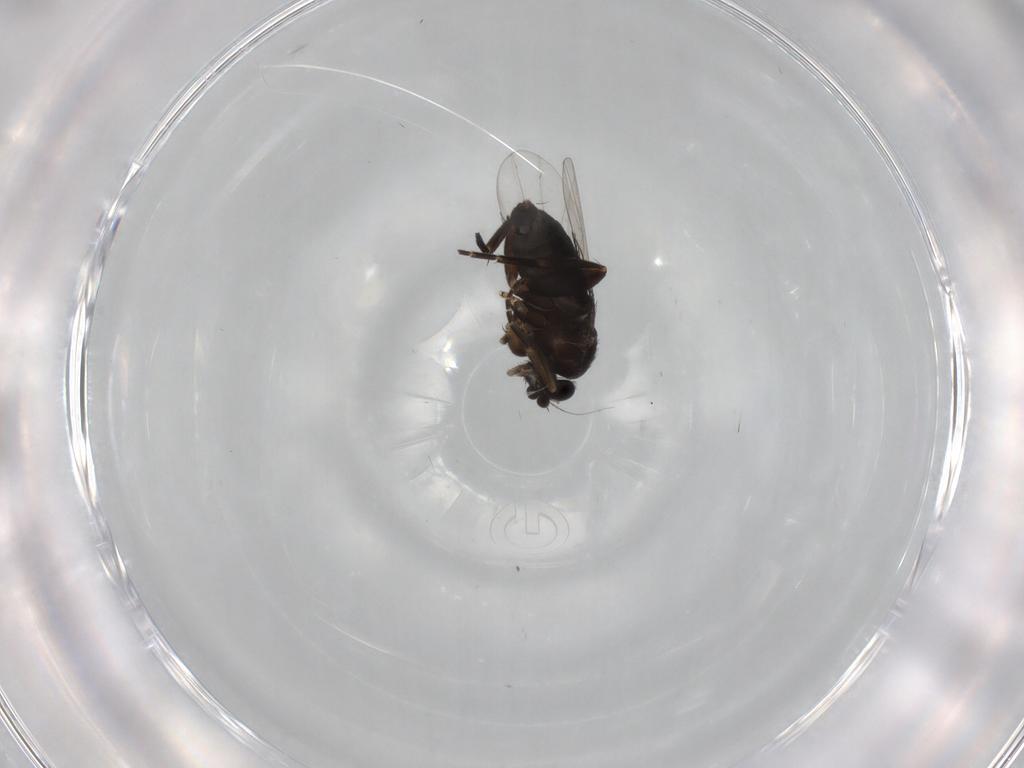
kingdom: Animalia
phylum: Arthropoda
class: Insecta
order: Diptera
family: Phoridae
